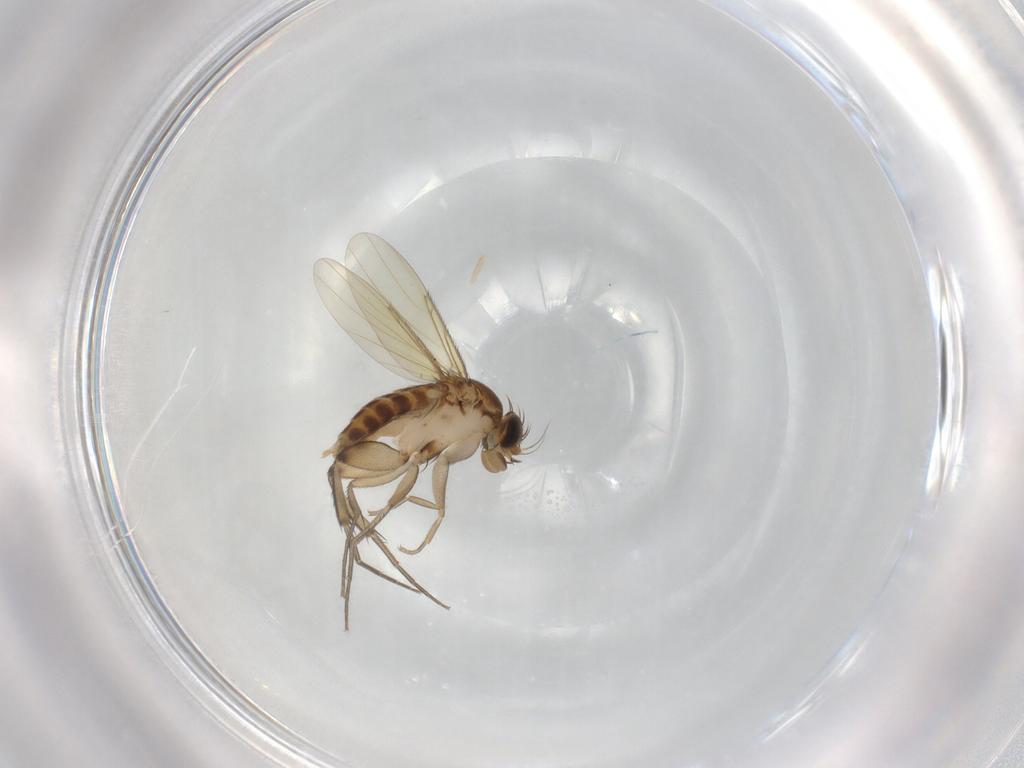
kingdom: Animalia
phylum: Arthropoda
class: Insecta
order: Diptera
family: Phoridae
